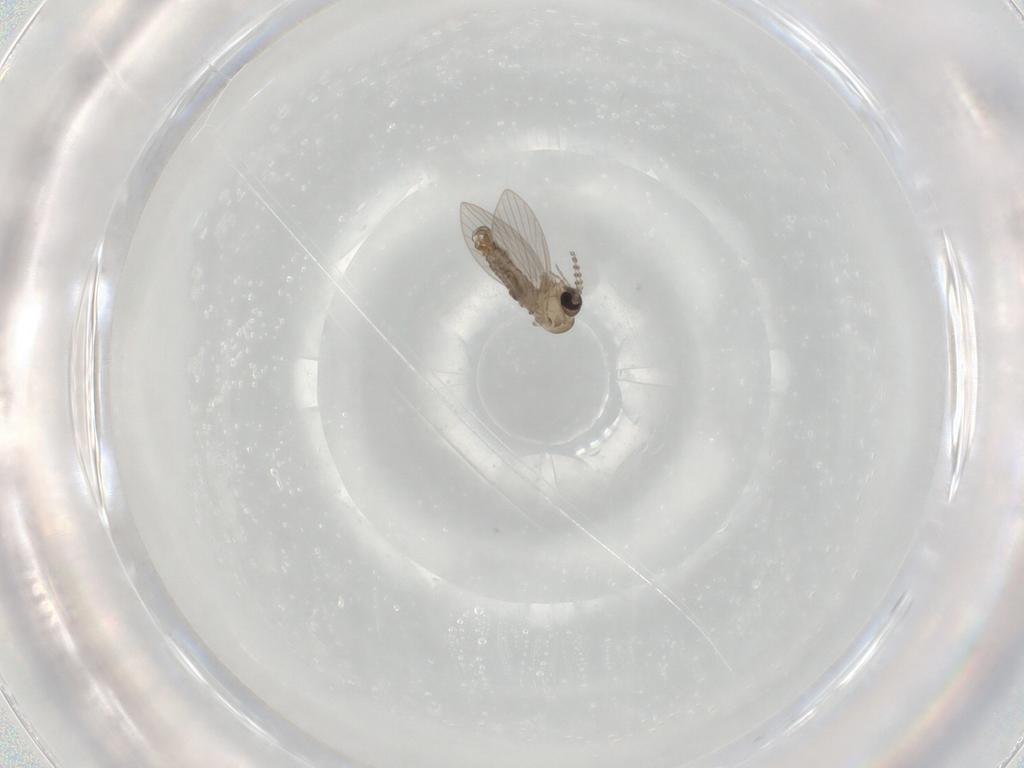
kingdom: Animalia
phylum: Arthropoda
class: Insecta
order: Diptera
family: Psychodidae
